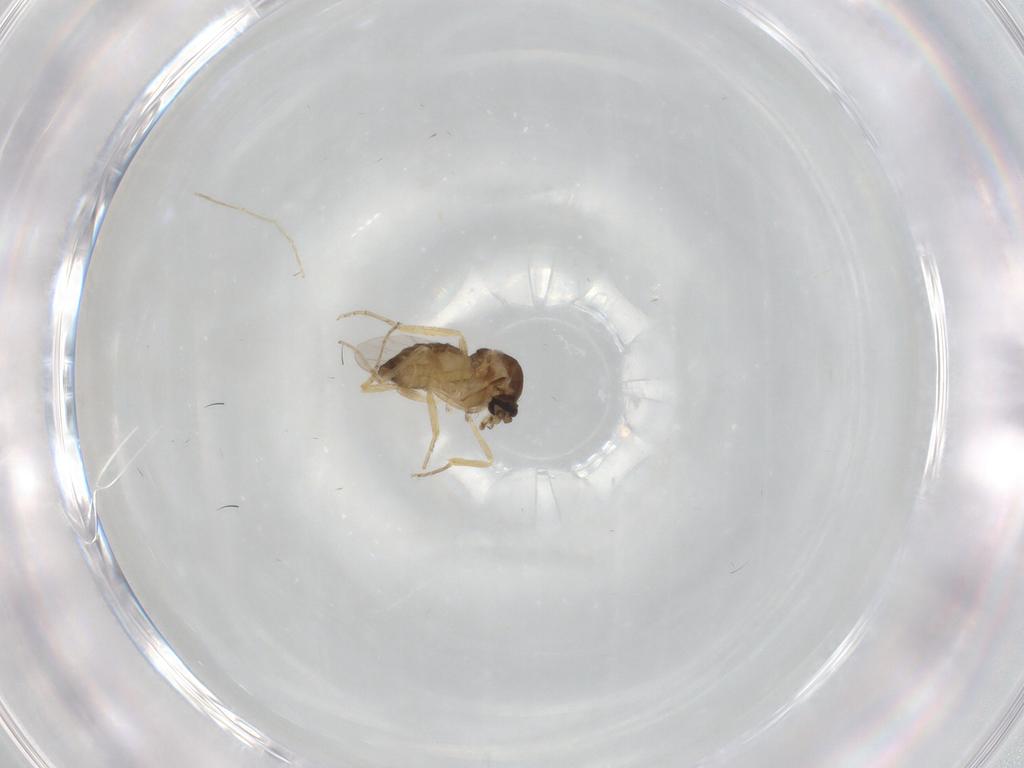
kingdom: Animalia
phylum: Arthropoda
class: Insecta
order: Diptera
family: Ceratopogonidae
